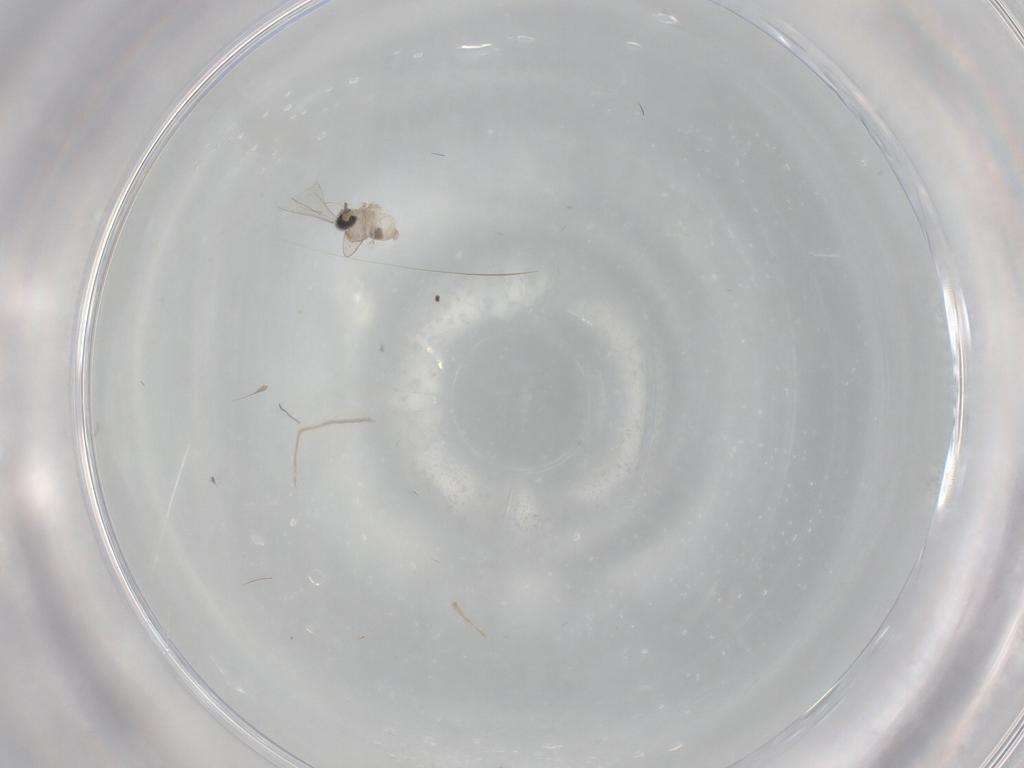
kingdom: Animalia
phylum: Arthropoda
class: Insecta
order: Diptera
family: Cecidomyiidae
